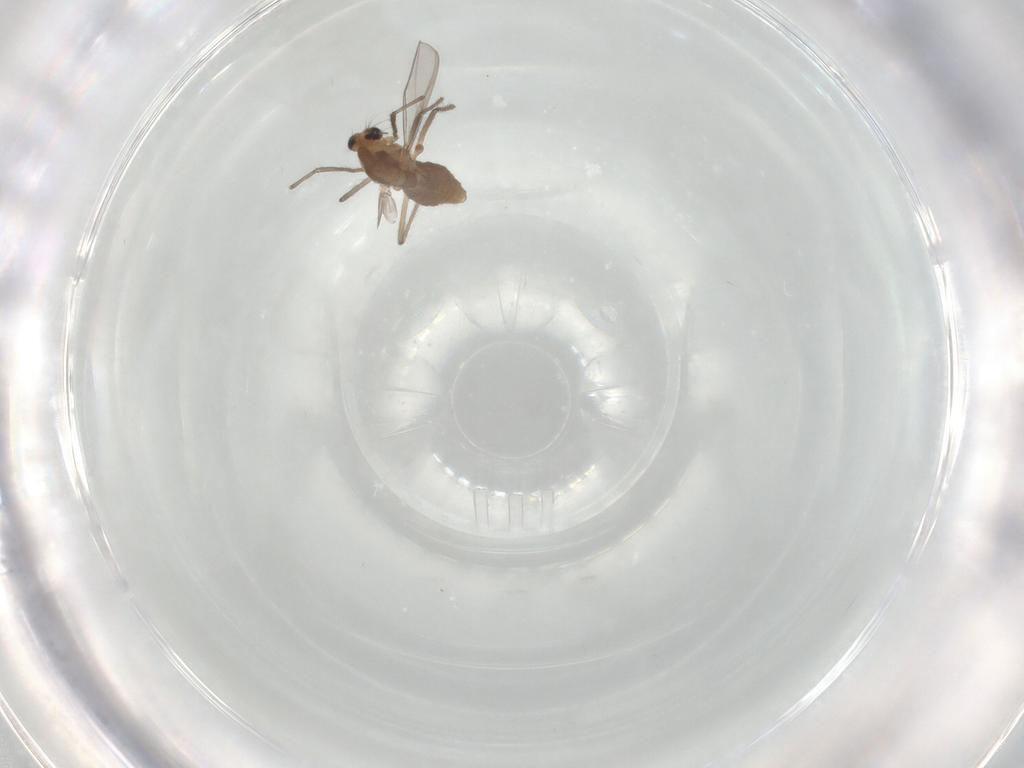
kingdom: Animalia
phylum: Arthropoda
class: Insecta
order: Diptera
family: Chironomidae
